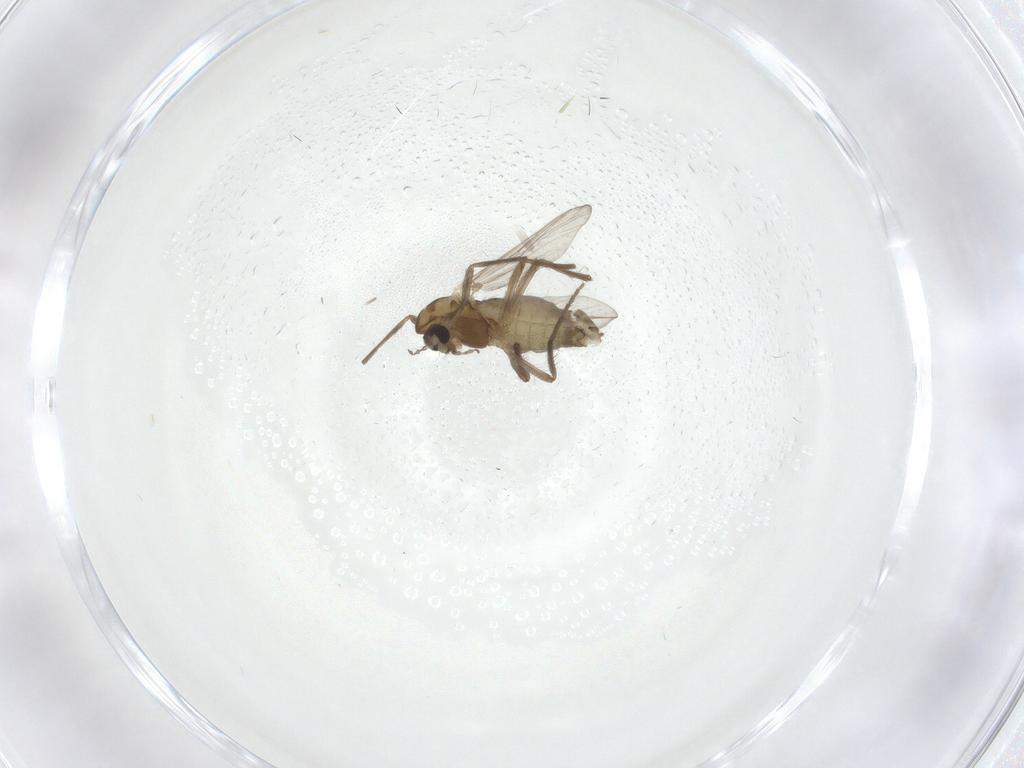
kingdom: Animalia
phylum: Arthropoda
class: Insecta
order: Diptera
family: Chironomidae
